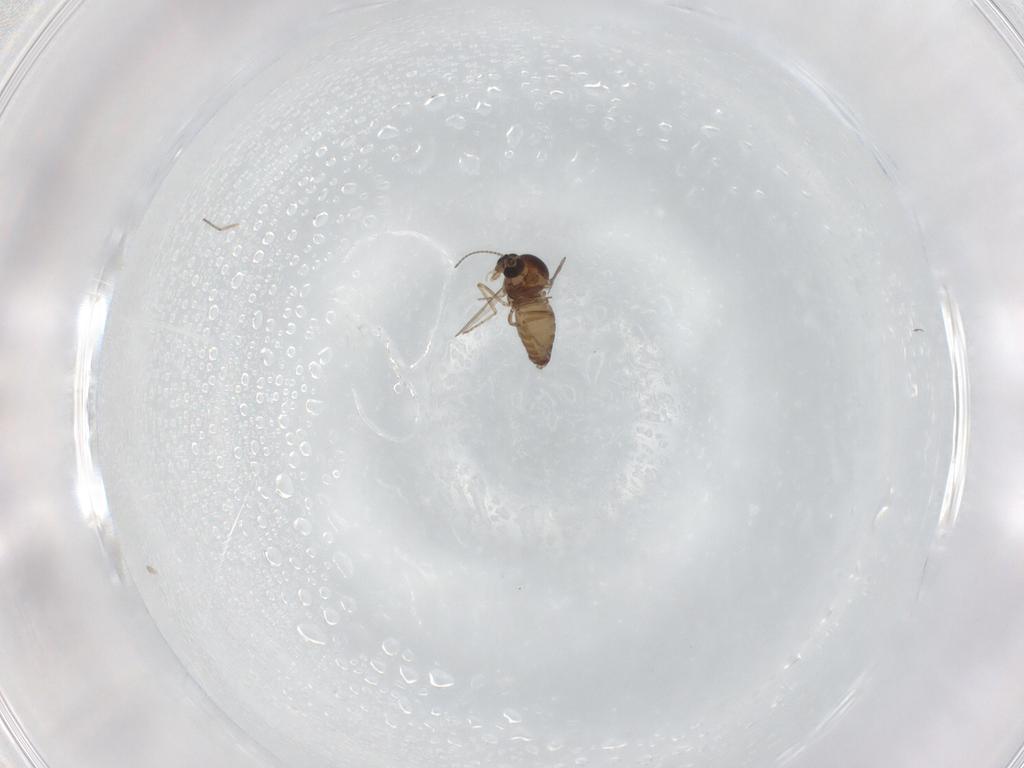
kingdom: Animalia
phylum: Arthropoda
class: Insecta
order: Diptera
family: Ceratopogonidae
